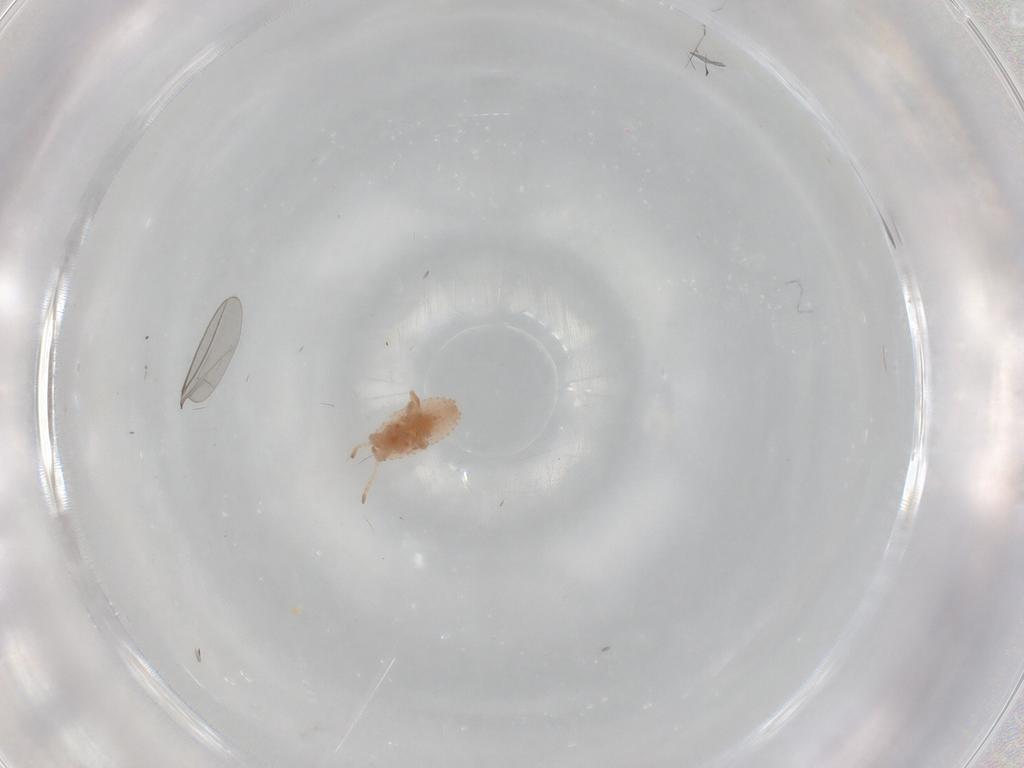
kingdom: Animalia
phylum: Arthropoda
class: Insecta
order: Hemiptera
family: Coccoidea_incertae_sedis
